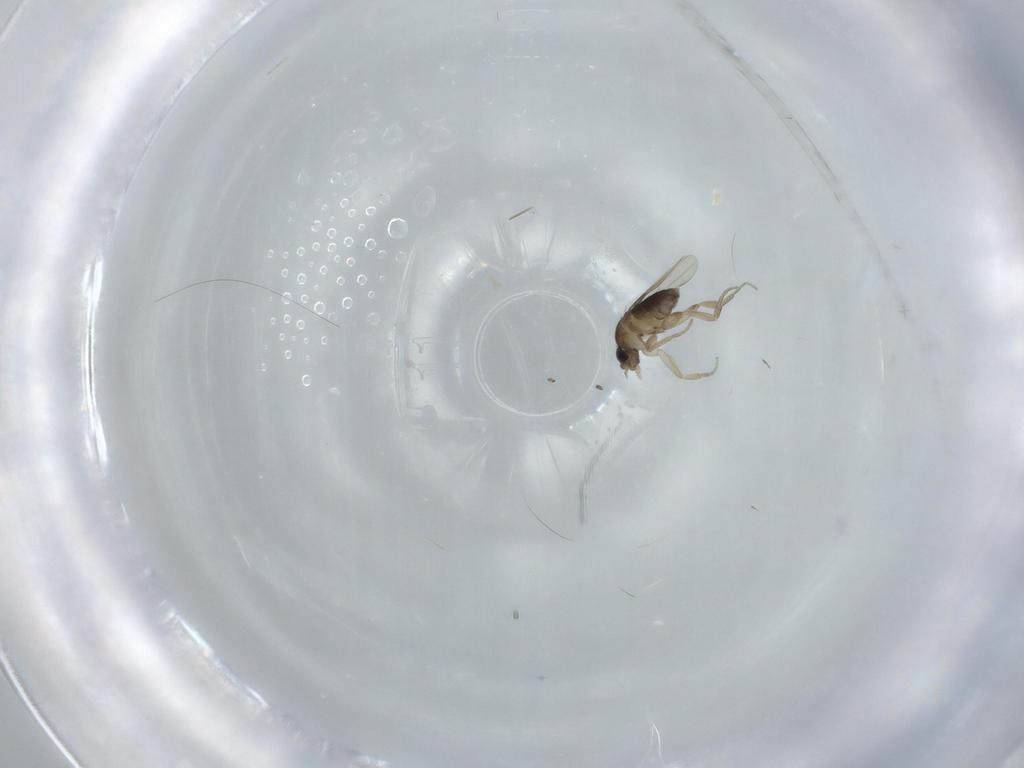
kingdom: Animalia
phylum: Arthropoda
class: Insecta
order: Diptera
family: Phoridae
